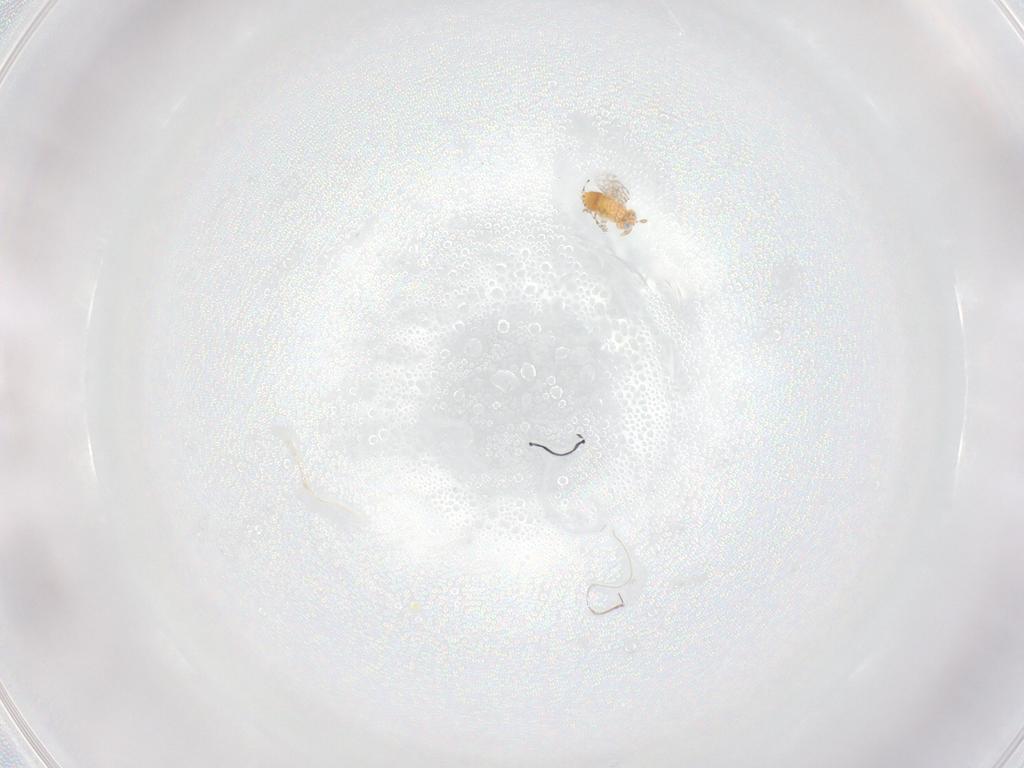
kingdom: Animalia
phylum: Arthropoda
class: Insecta
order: Hymenoptera
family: Aphelinidae
